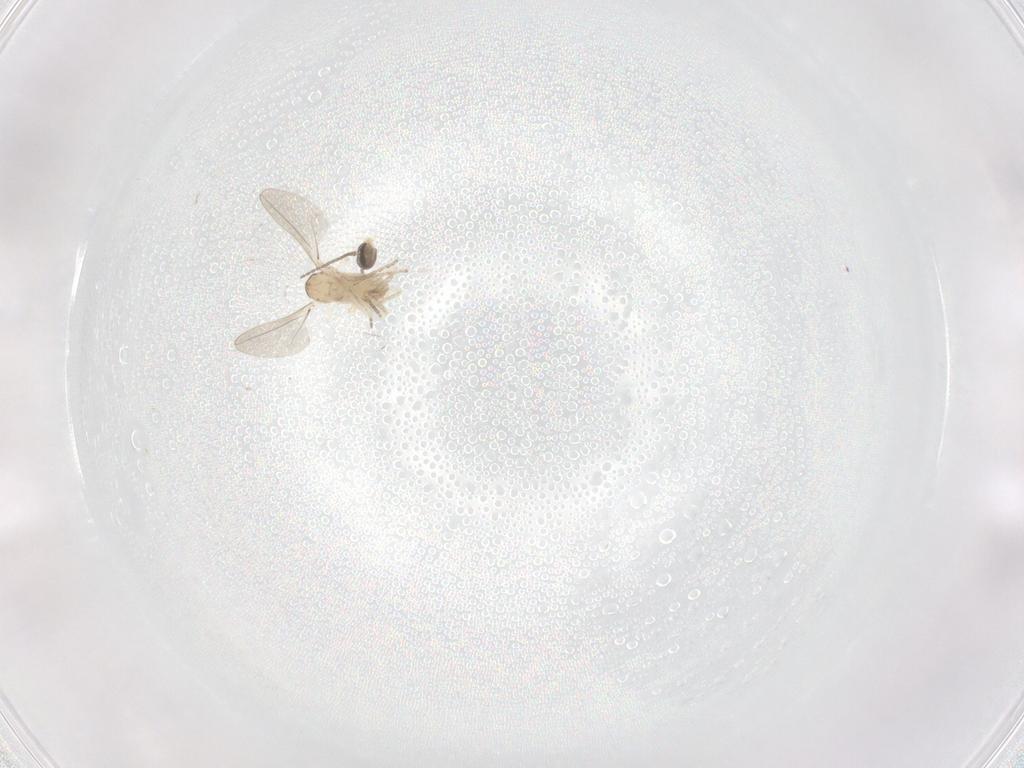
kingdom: Animalia
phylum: Arthropoda
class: Insecta
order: Diptera
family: Cecidomyiidae
